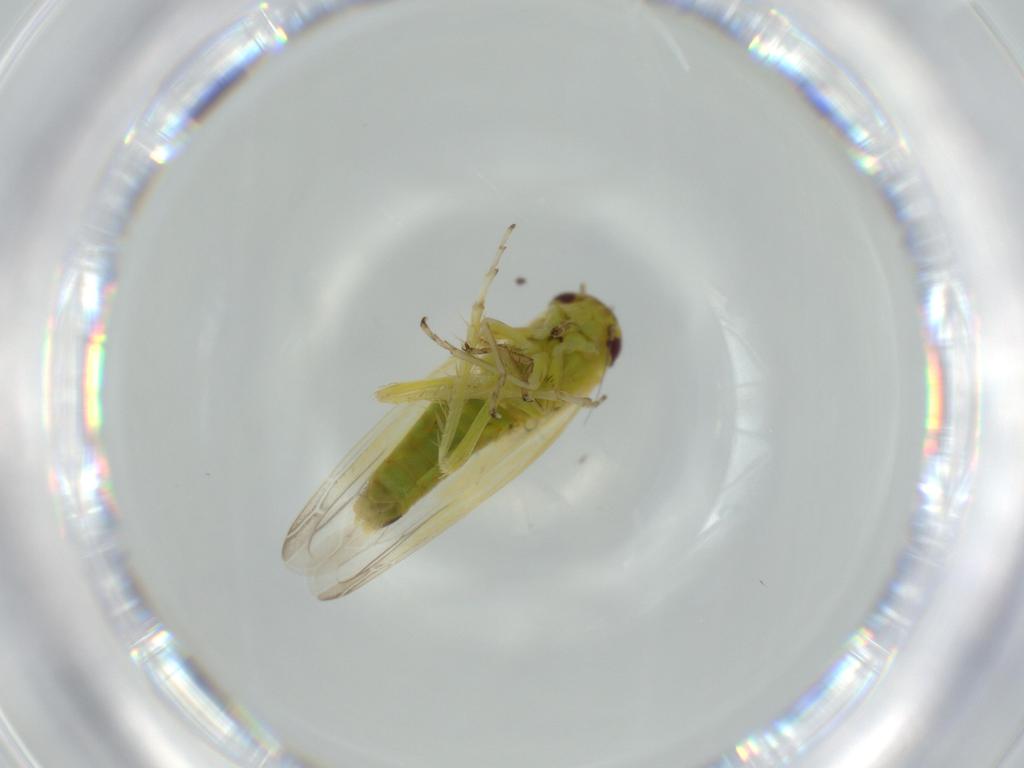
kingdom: Animalia
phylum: Arthropoda
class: Insecta
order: Hemiptera
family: Cicadellidae
